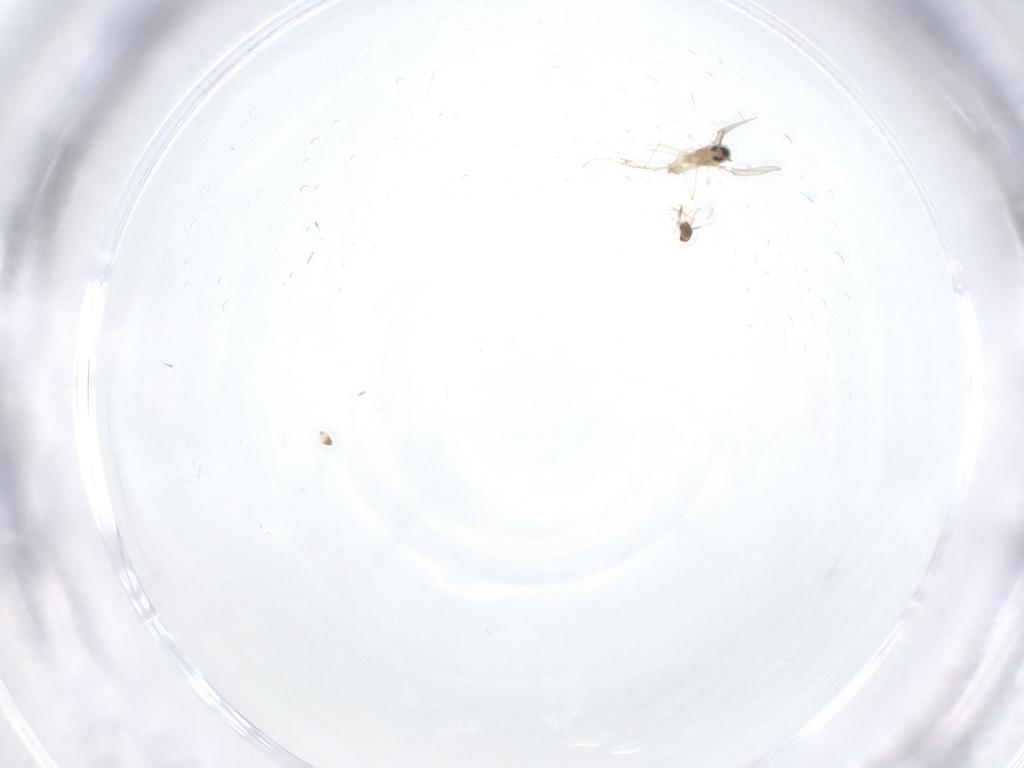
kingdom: Animalia
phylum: Arthropoda
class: Insecta
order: Diptera
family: Cecidomyiidae
